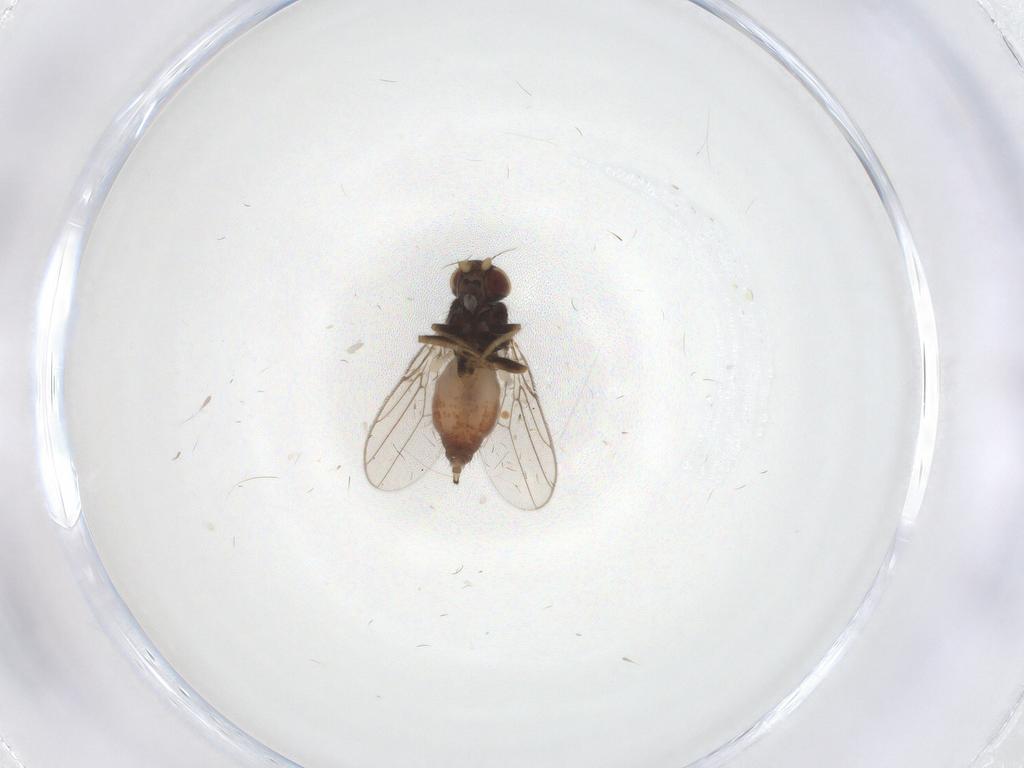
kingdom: Animalia
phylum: Arthropoda
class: Insecta
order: Diptera
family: Chloropidae
